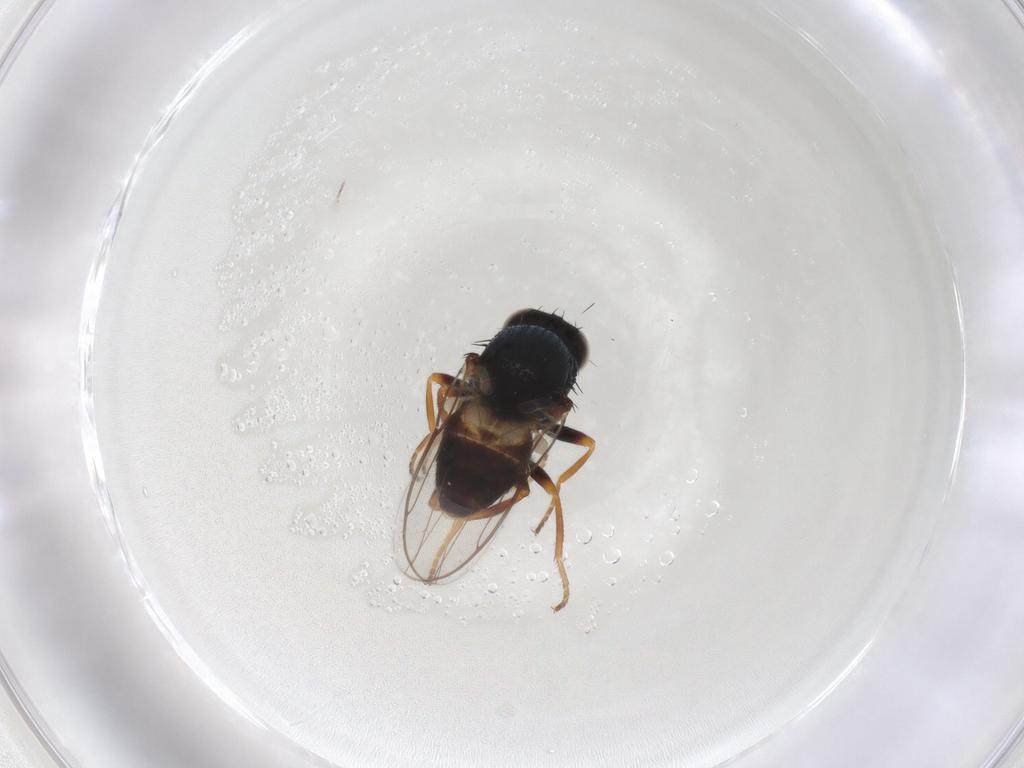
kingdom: Animalia
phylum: Arthropoda
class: Insecta
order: Diptera
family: Chloropidae
